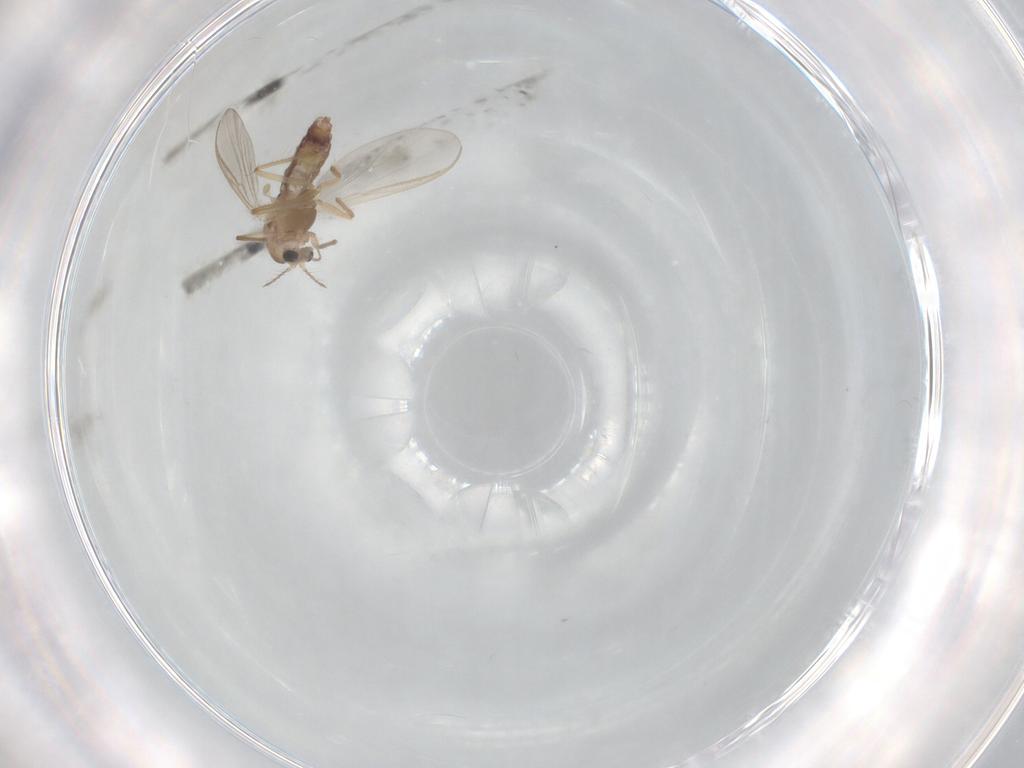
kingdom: Animalia
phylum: Arthropoda
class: Insecta
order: Diptera
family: Chironomidae
